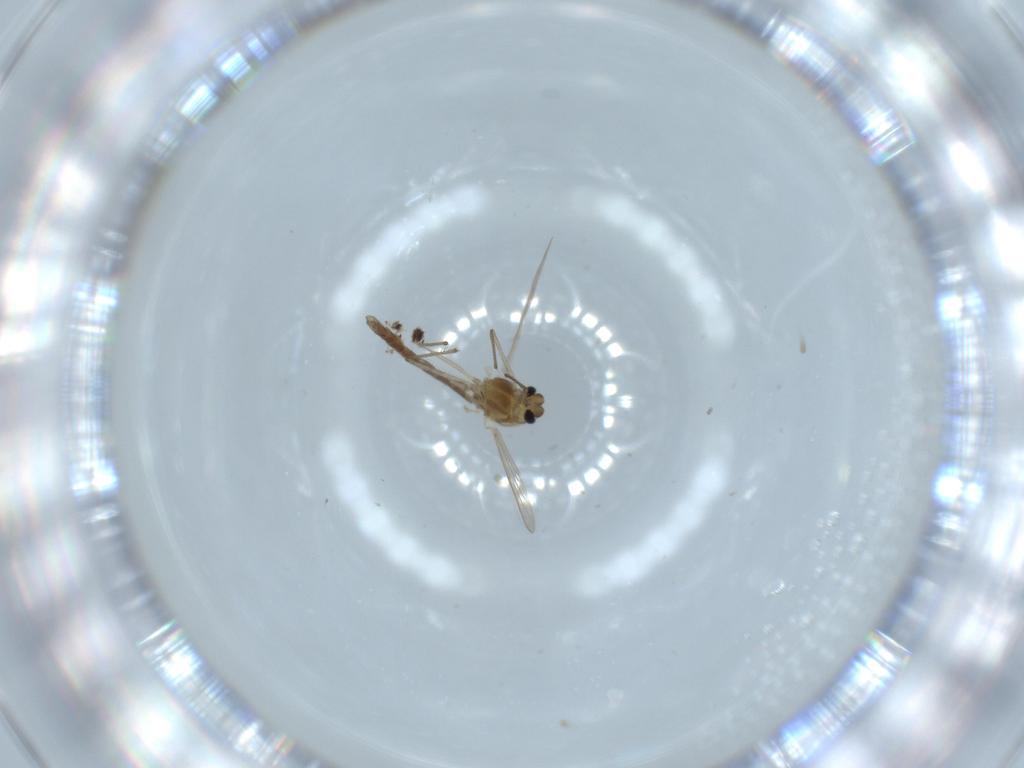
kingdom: Animalia
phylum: Arthropoda
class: Insecta
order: Diptera
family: Chironomidae
